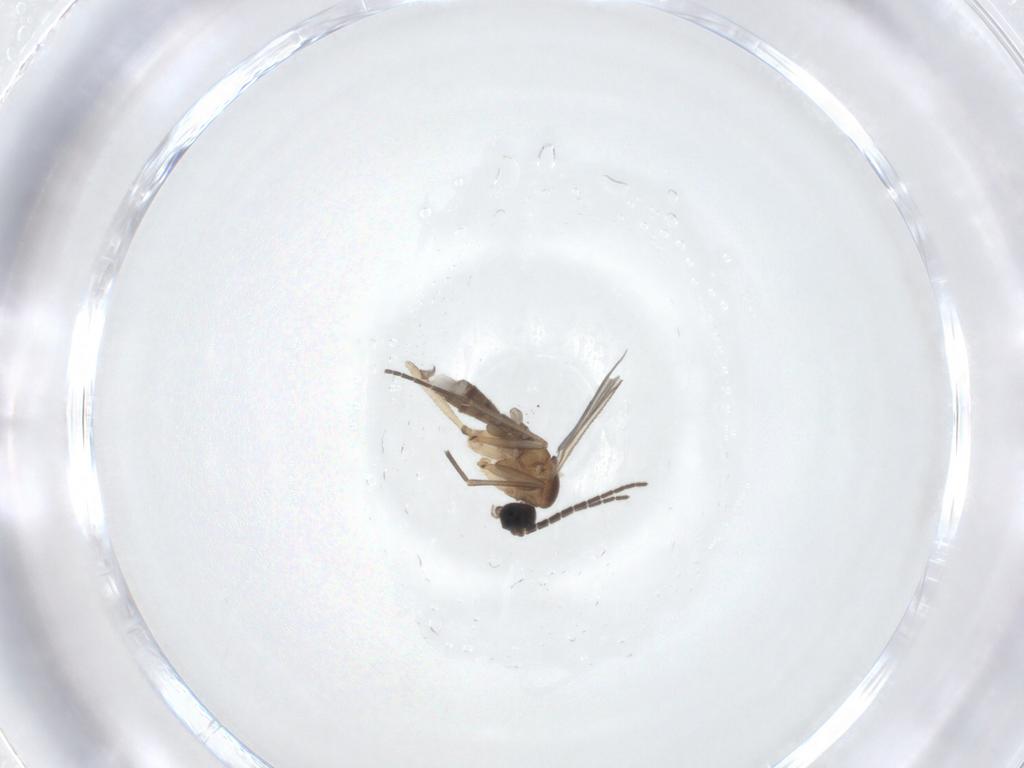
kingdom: Animalia
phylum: Arthropoda
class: Insecta
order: Diptera
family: Sciaridae
